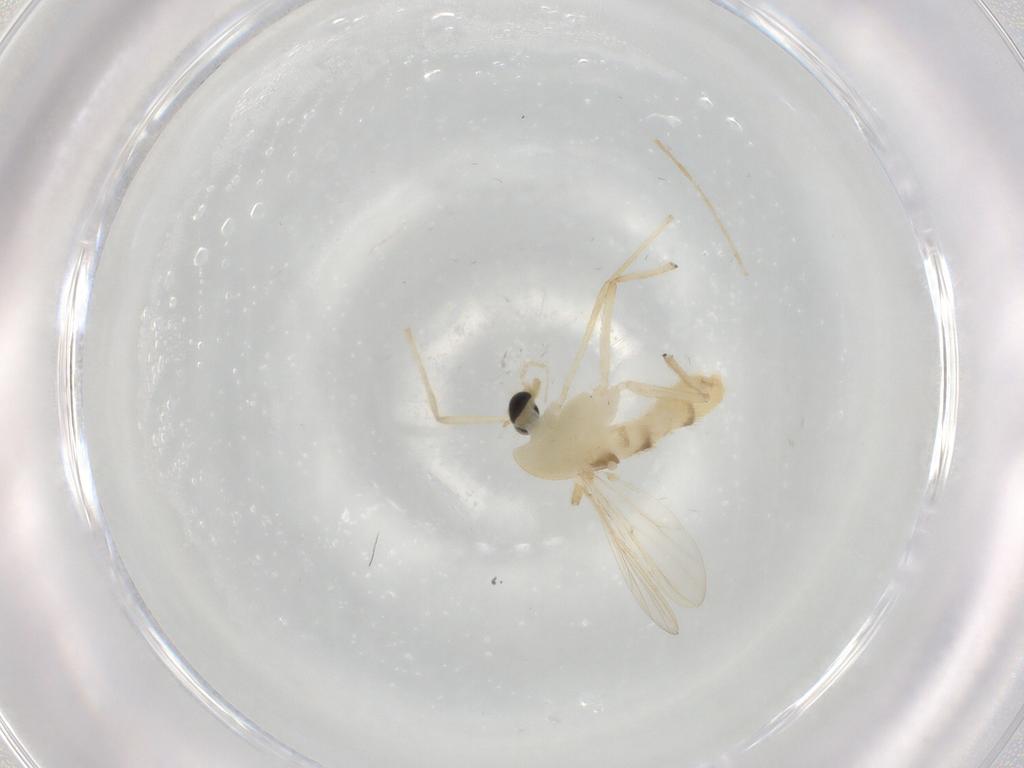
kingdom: Animalia
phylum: Arthropoda
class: Insecta
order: Diptera
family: Chironomidae
